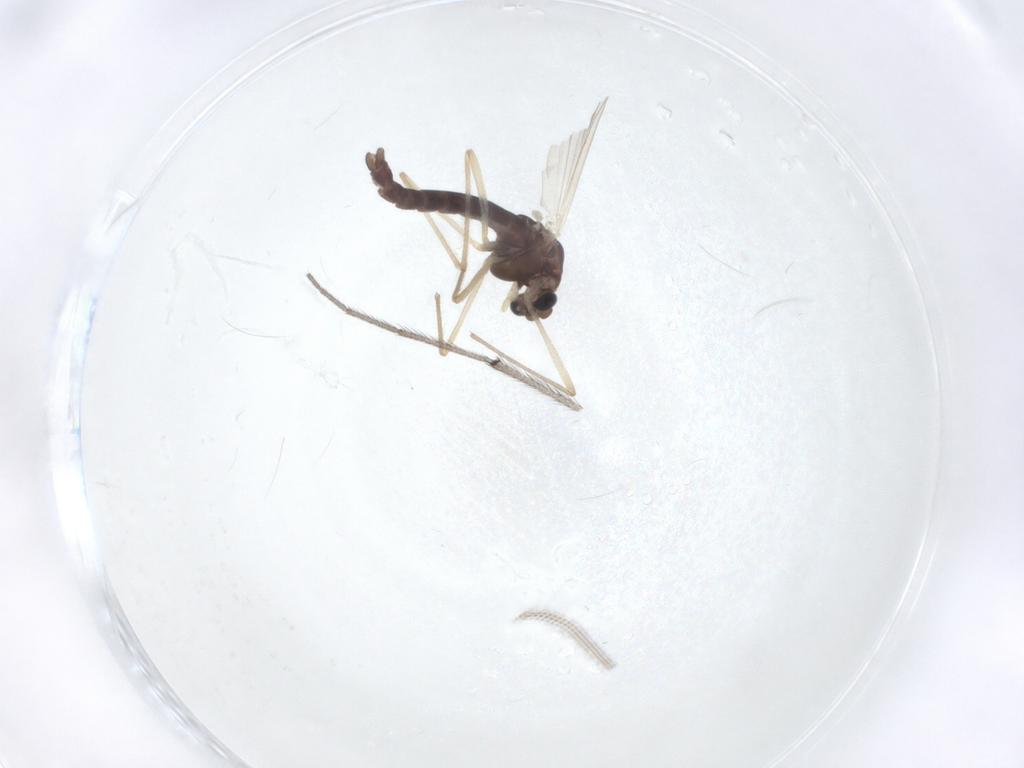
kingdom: Animalia
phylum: Arthropoda
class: Insecta
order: Diptera
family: Chironomidae
